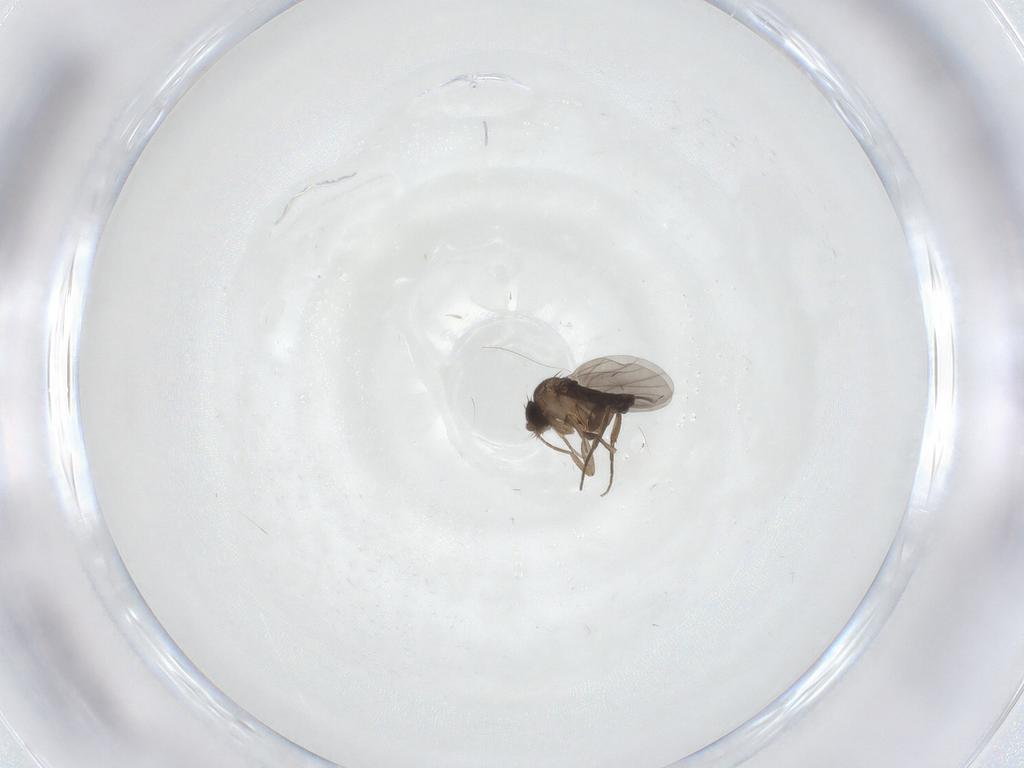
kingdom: Animalia
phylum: Arthropoda
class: Insecta
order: Diptera
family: Phoridae
